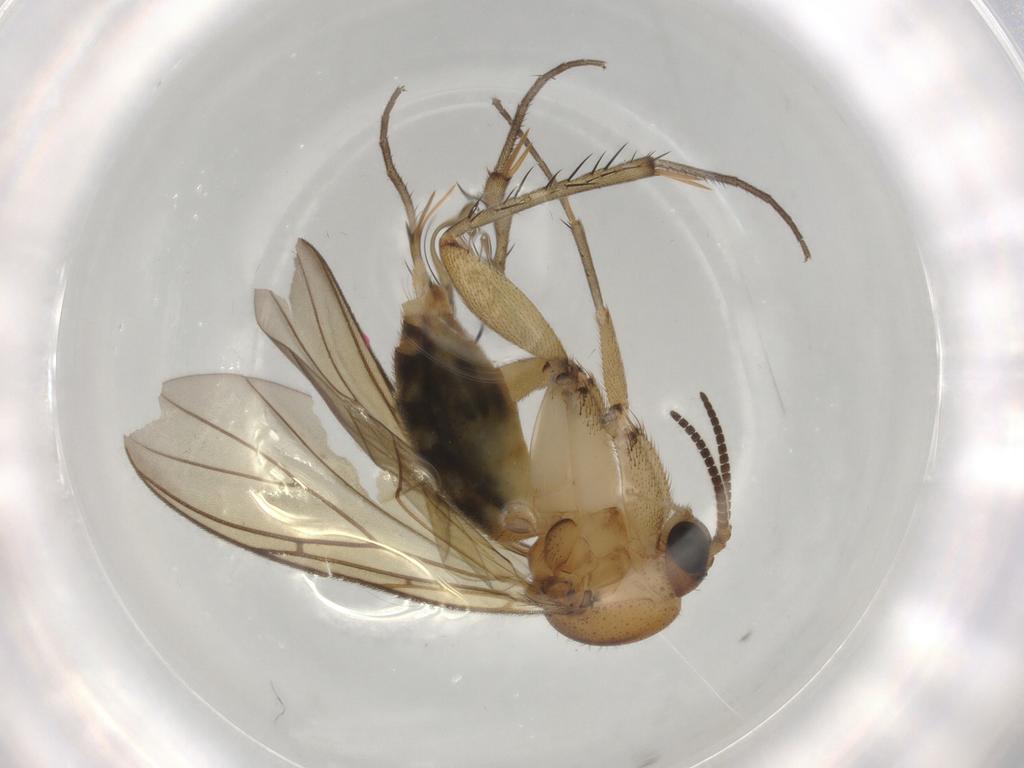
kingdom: Animalia
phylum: Arthropoda
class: Insecta
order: Diptera
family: Mycetophilidae
